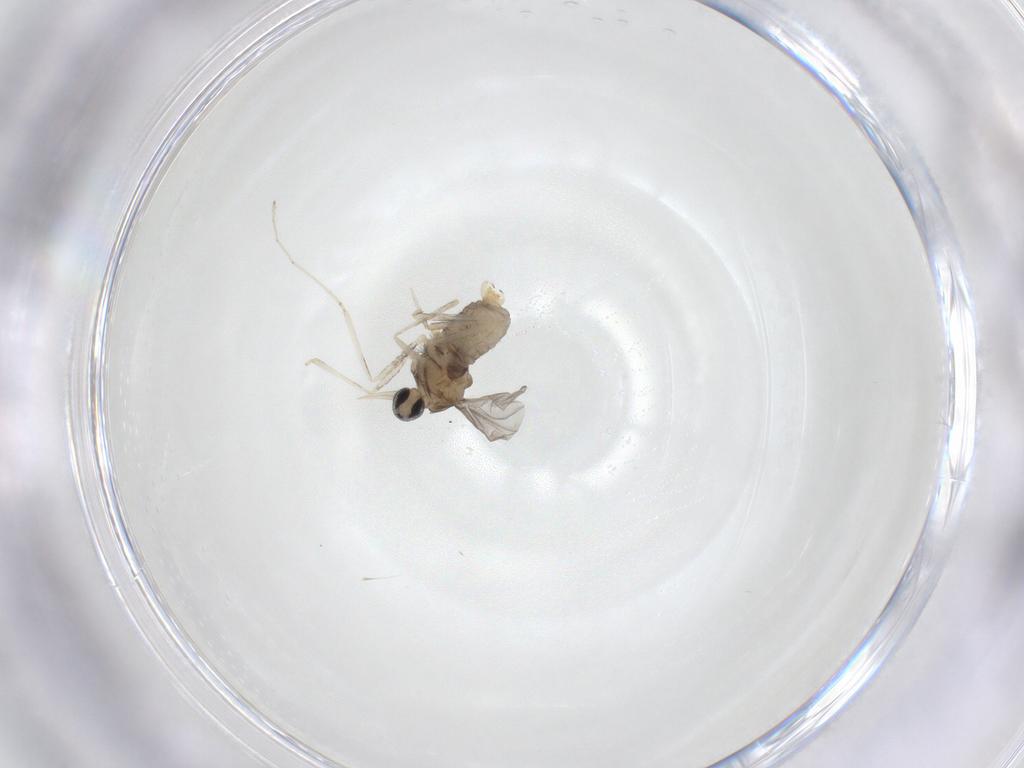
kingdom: Animalia
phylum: Arthropoda
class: Insecta
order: Diptera
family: Cecidomyiidae
